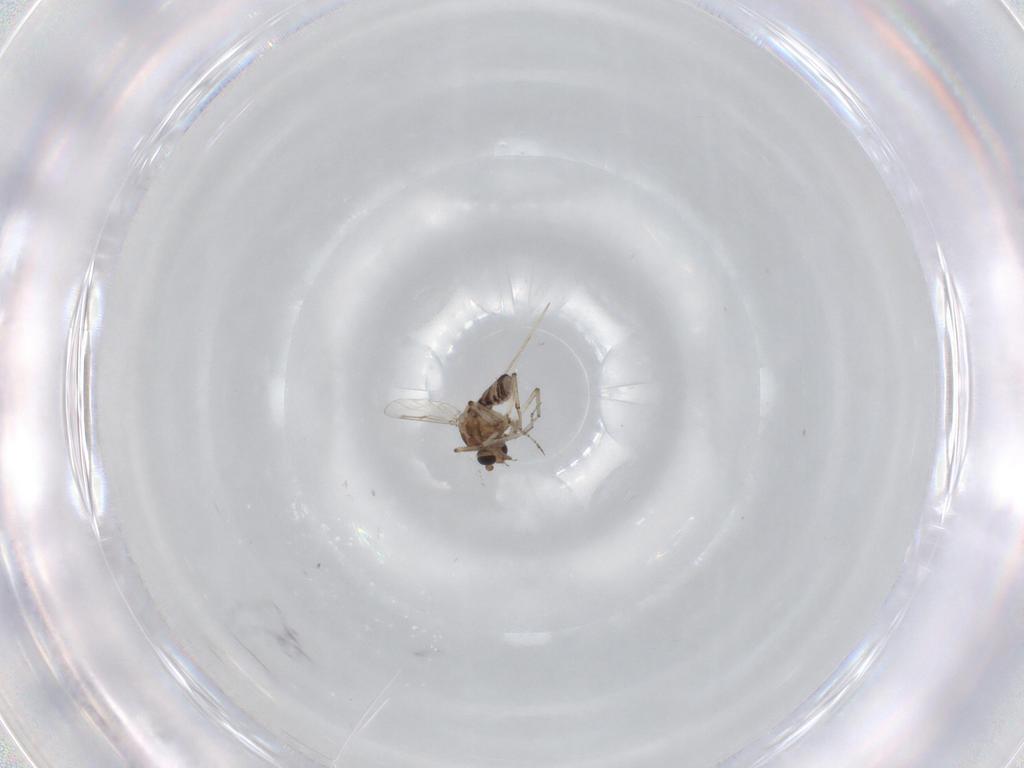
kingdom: Animalia
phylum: Arthropoda
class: Insecta
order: Diptera
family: Ceratopogonidae
